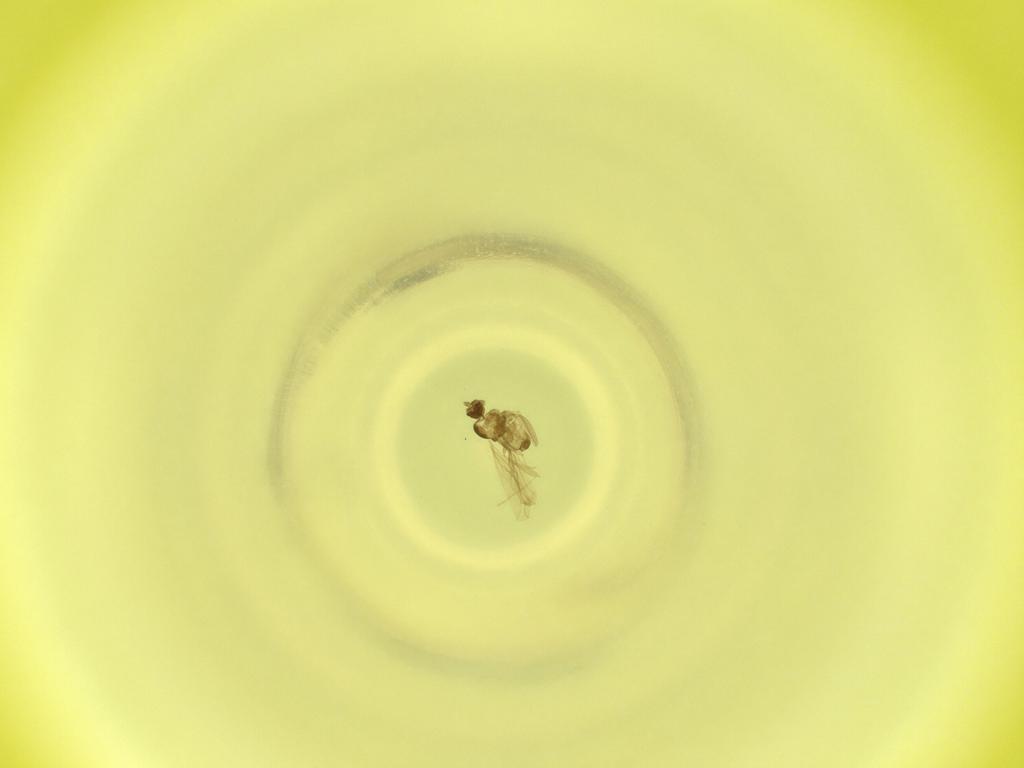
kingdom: Animalia
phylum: Arthropoda
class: Insecta
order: Diptera
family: Cecidomyiidae
